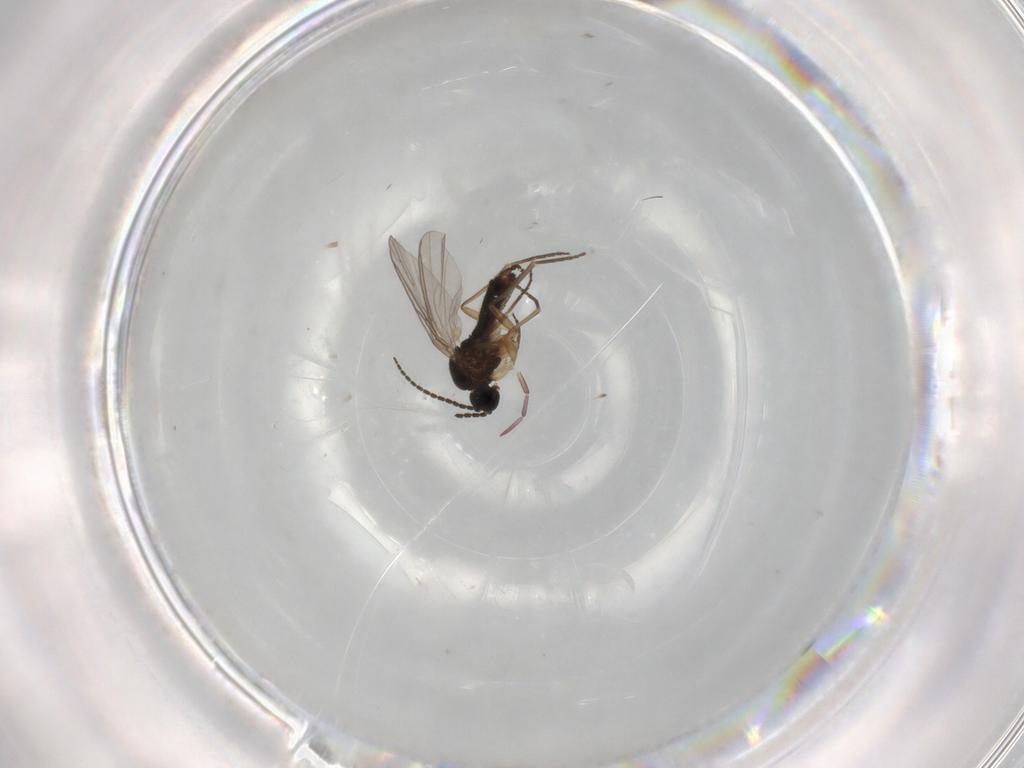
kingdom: Animalia
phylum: Arthropoda
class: Insecta
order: Diptera
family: Sciaridae
